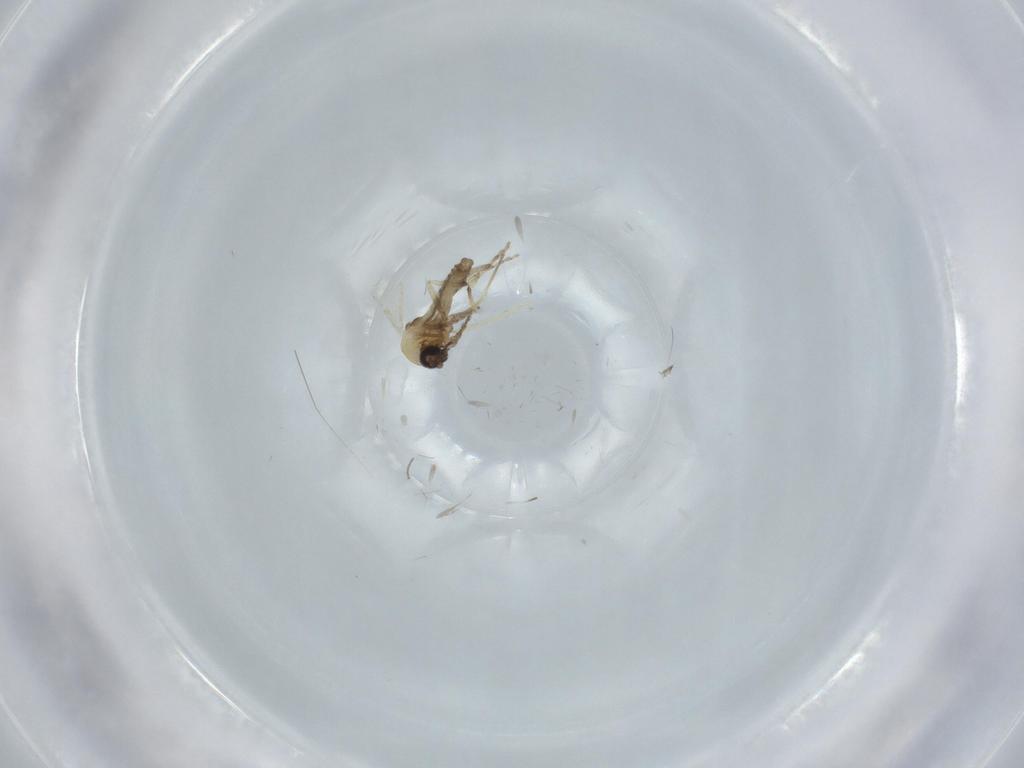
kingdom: Animalia
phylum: Arthropoda
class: Insecta
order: Diptera
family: Ceratopogonidae
